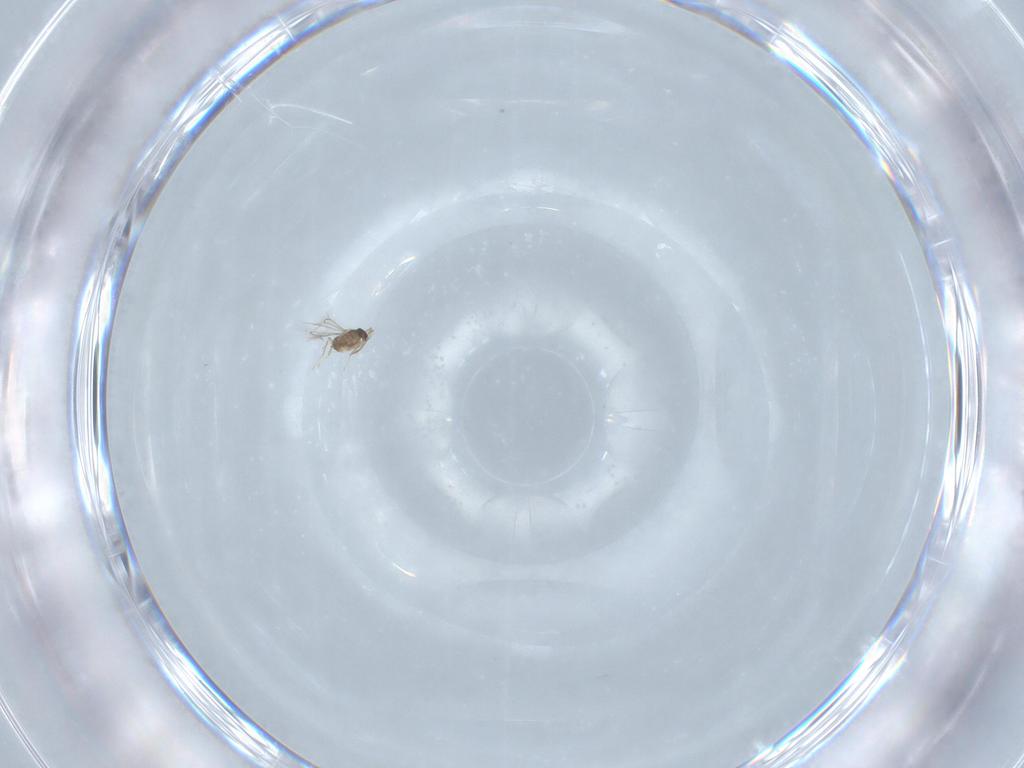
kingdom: Animalia
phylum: Arthropoda
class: Insecta
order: Hymenoptera
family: Mymaridae
